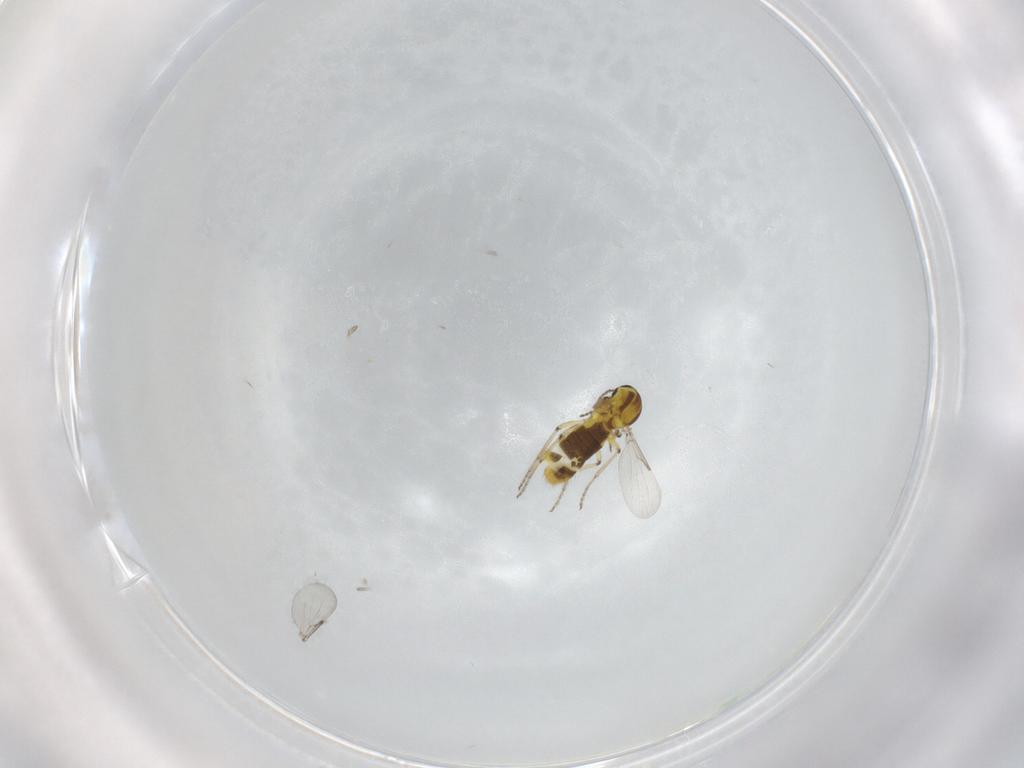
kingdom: Animalia
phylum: Arthropoda
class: Insecta
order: Diptera
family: Ceratopogonidae
